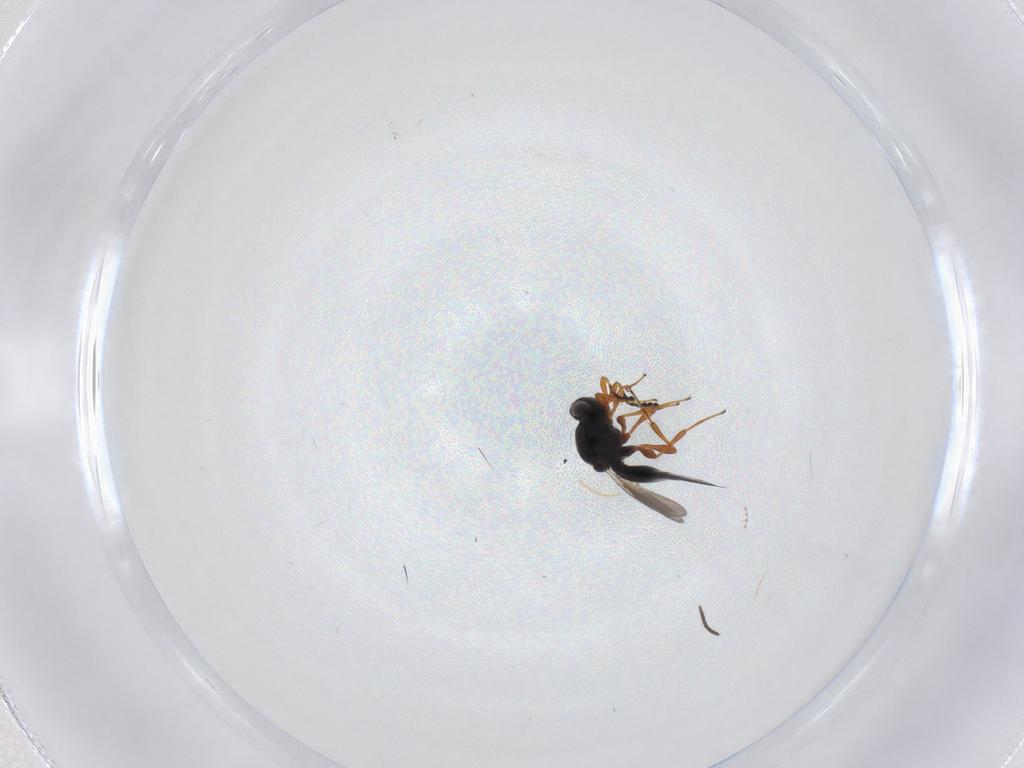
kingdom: Animalia
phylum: Arthropoda
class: Insecta
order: Hymenoptera
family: Platygastridae
